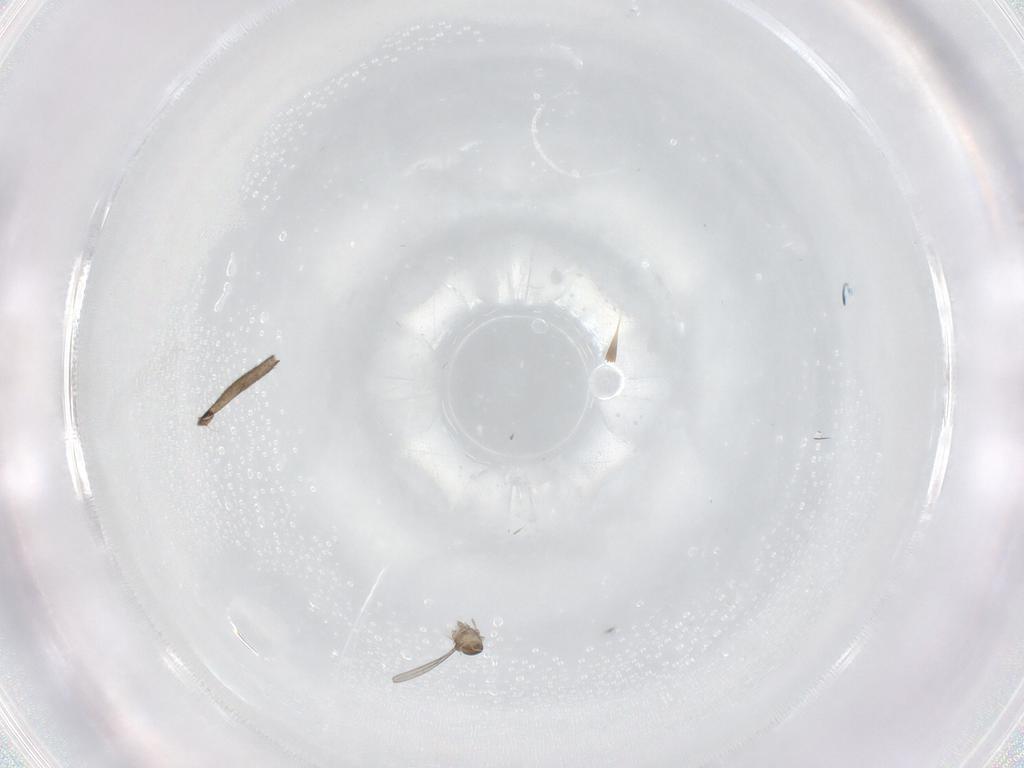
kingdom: Animalia
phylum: Arthropoda
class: Insecta
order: Diptera
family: Sciaridae
